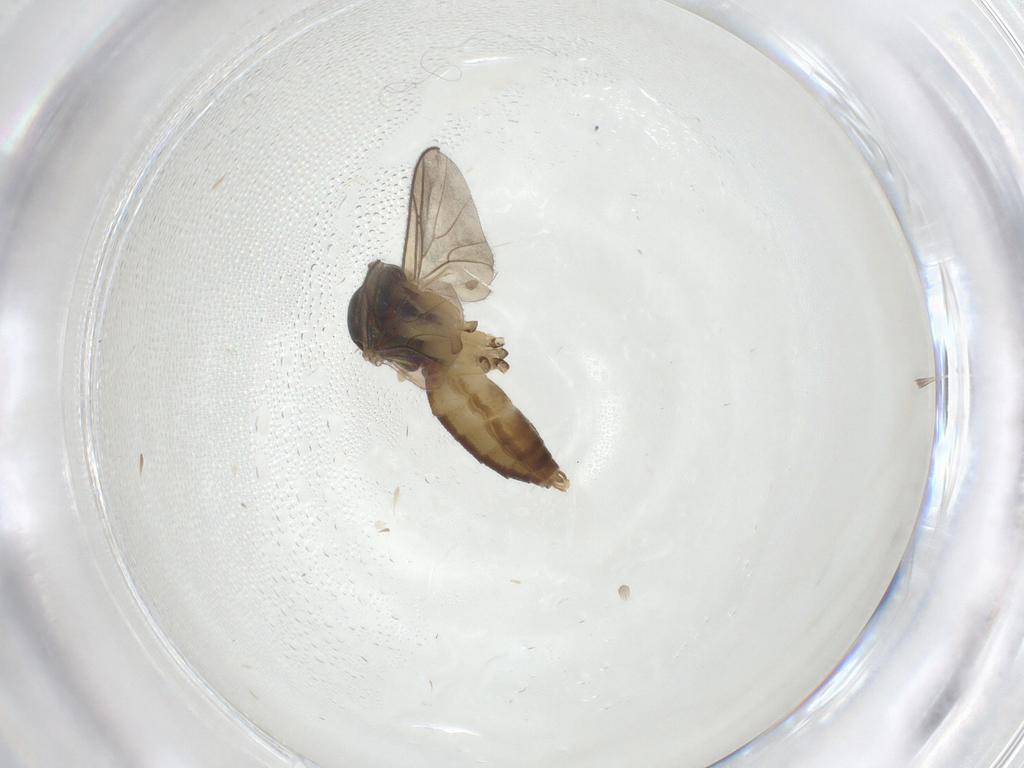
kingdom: Animalia
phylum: Arthropoda
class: Insecta
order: Diptera
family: Mycetophilidae
